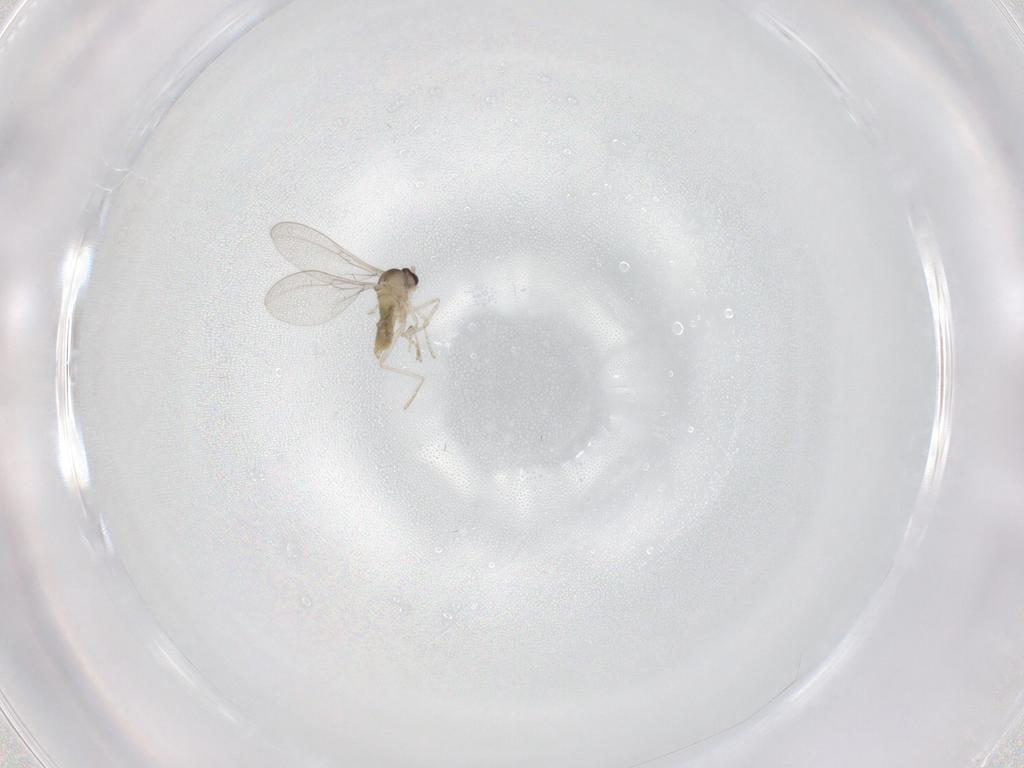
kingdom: Animalia
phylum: Arthropoda
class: Insecta
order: Diptera
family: Cecidomyiidae
